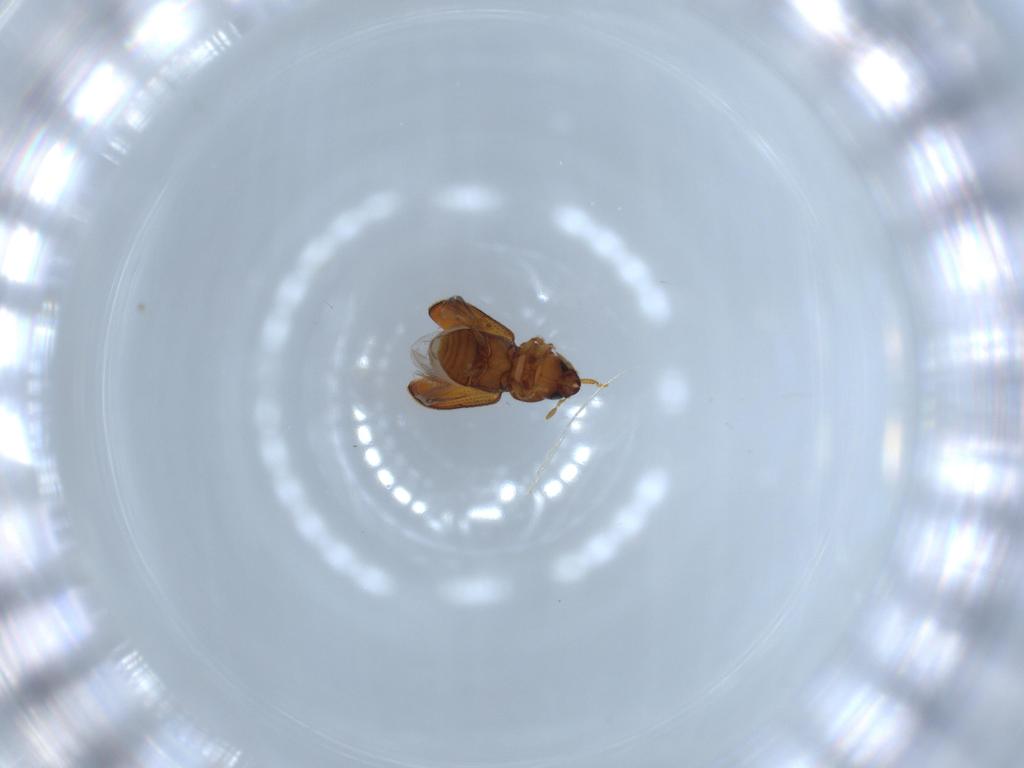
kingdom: Animalia
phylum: Arthropoda
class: Insecta
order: Coleoptera
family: Curculionidae
